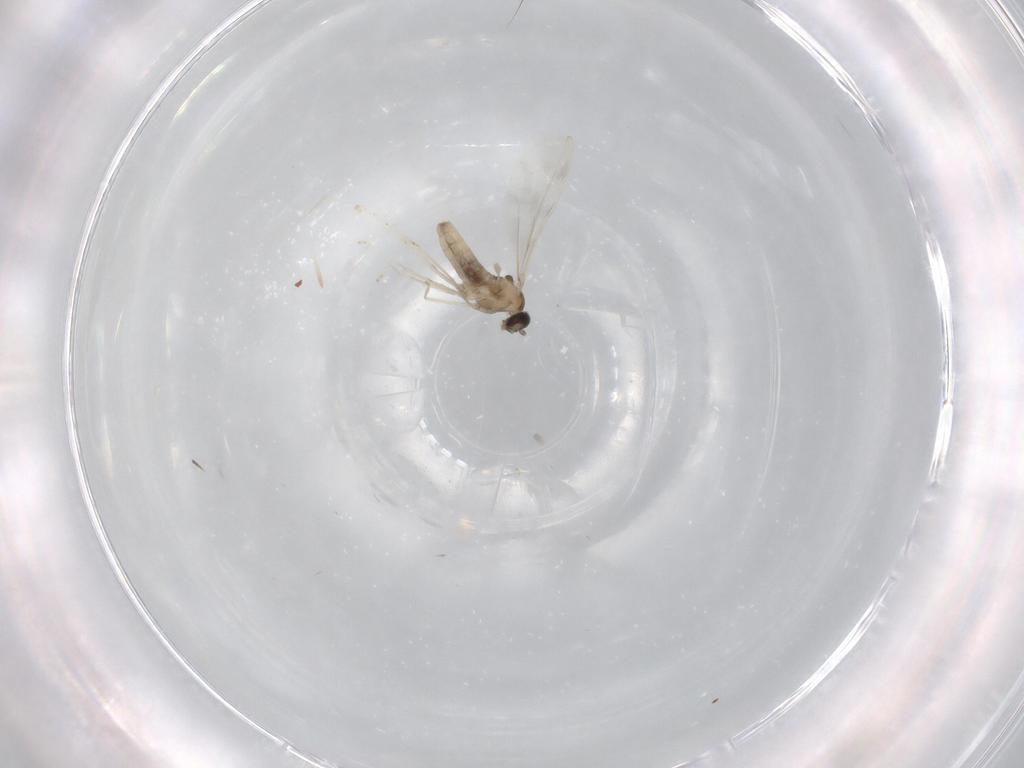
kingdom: Animalia
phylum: Arthropoda
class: Insecta
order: Diptera
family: Cecidomyiidae
